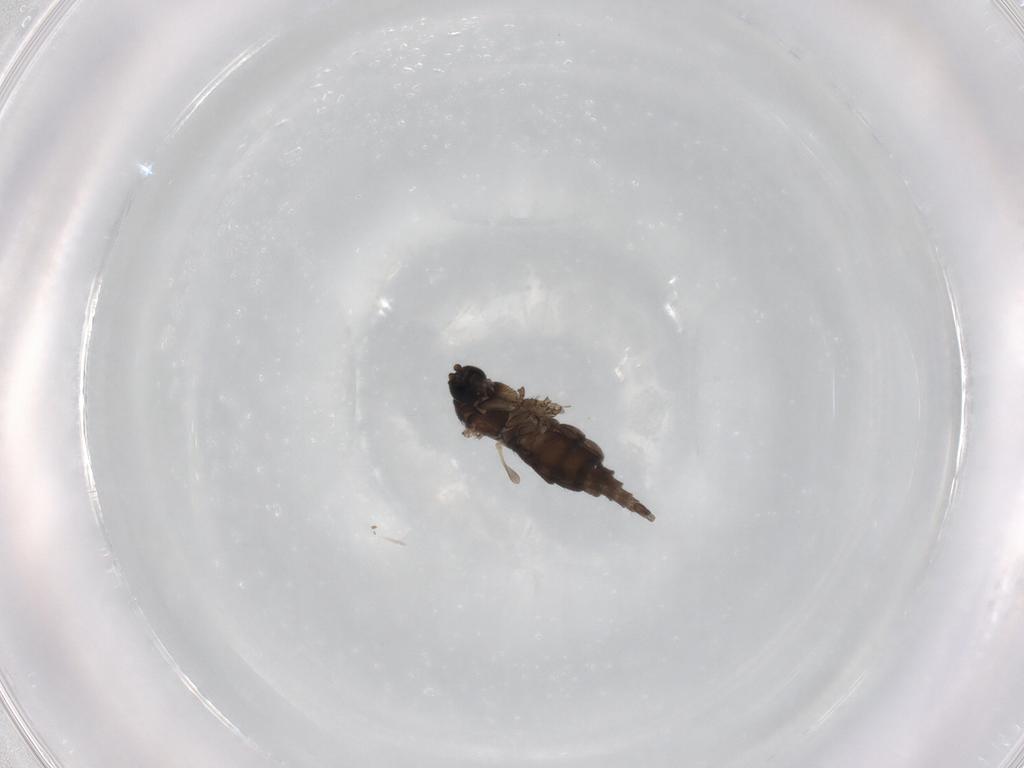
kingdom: Animalia
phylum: Arthropoda
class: Insecta
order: Diptera
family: Sciaridae
